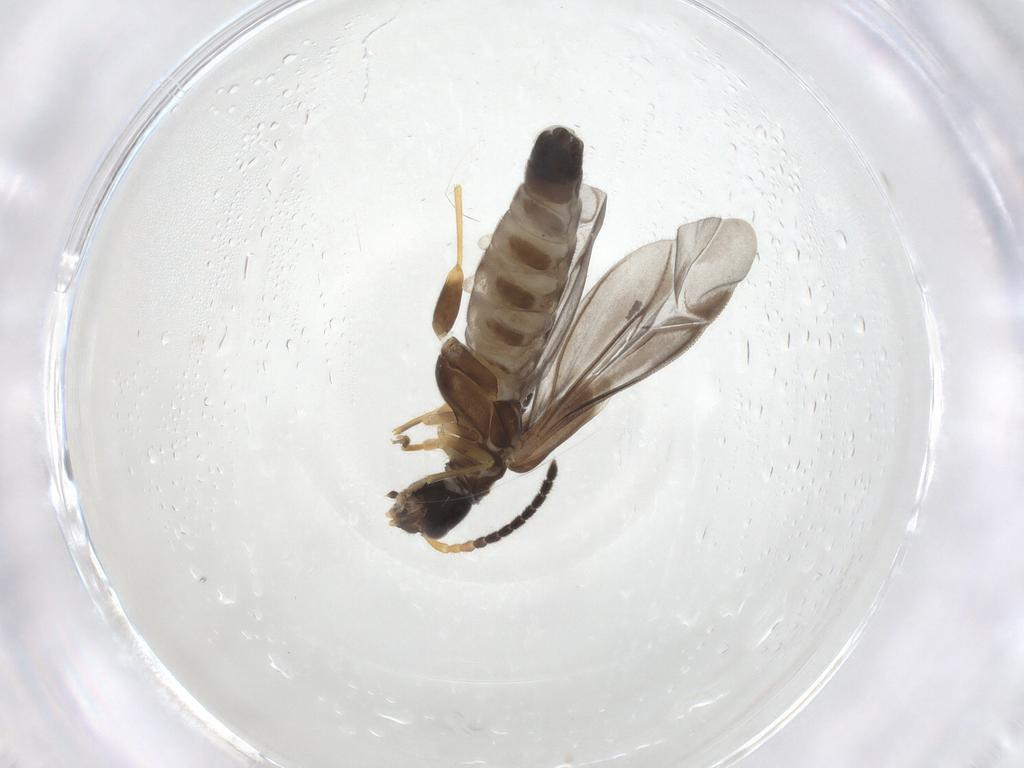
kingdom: Animalia
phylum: Arthropoda
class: Insecta
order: Coleoptera
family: Cantharidae
